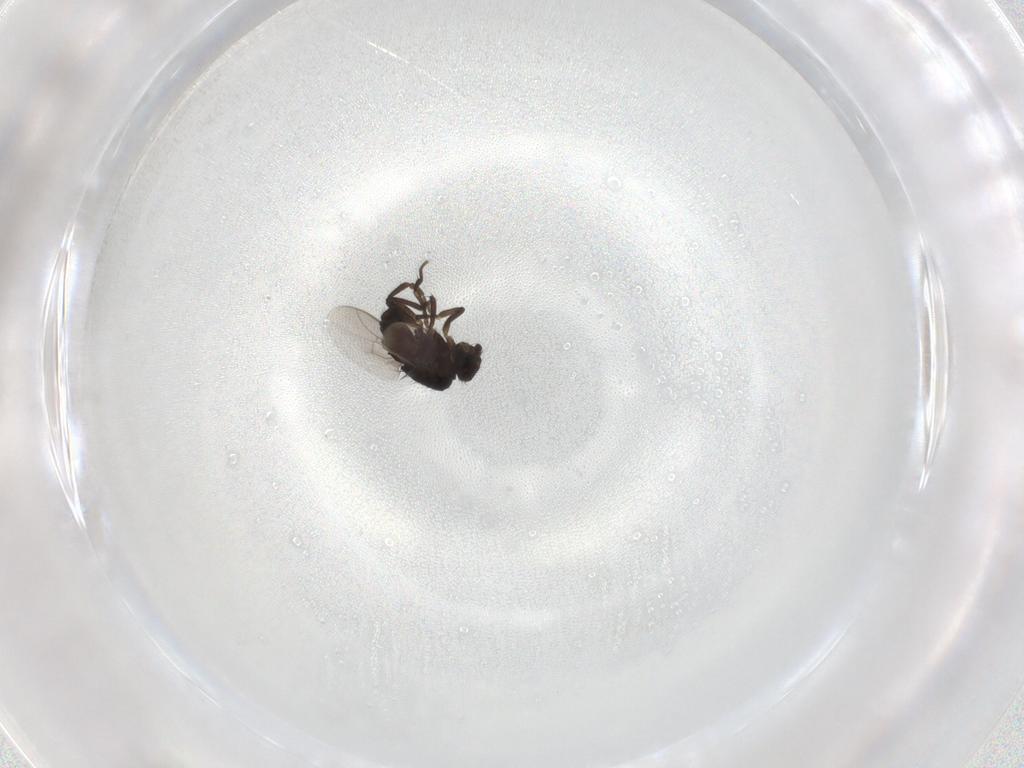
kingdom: Animalia
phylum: Arthropoda
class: Insecta
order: Diptera
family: Sphaeroceridae
